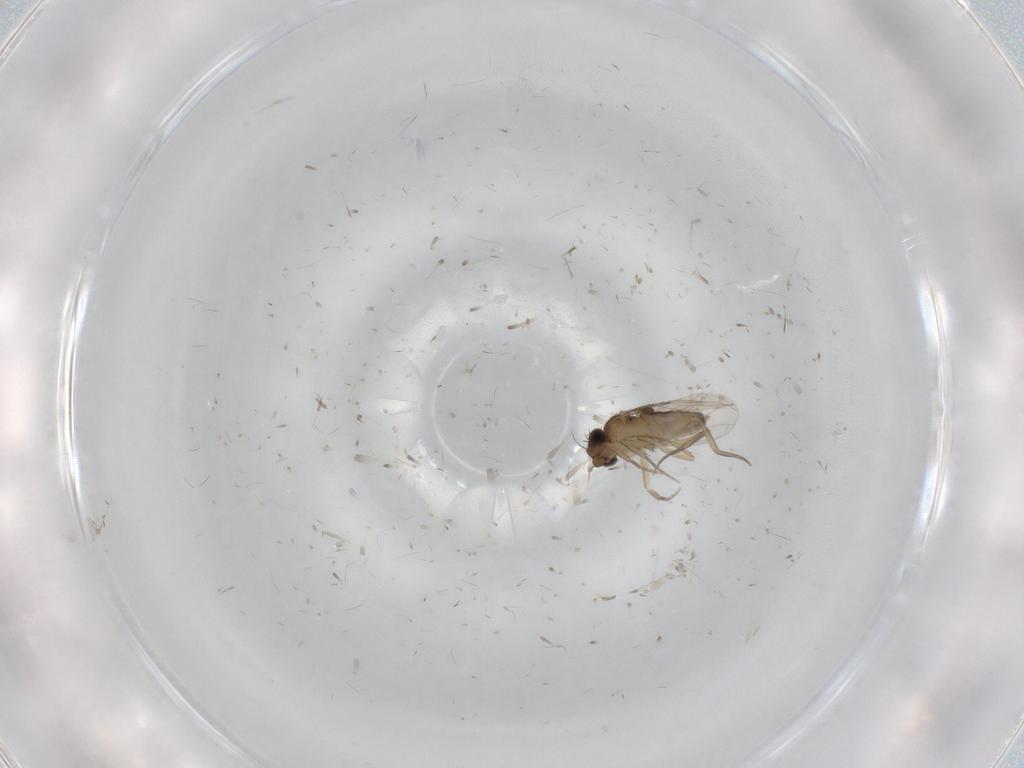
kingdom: Animalia
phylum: Arthropoda
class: Insecta
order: Diptera
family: Phoridae
